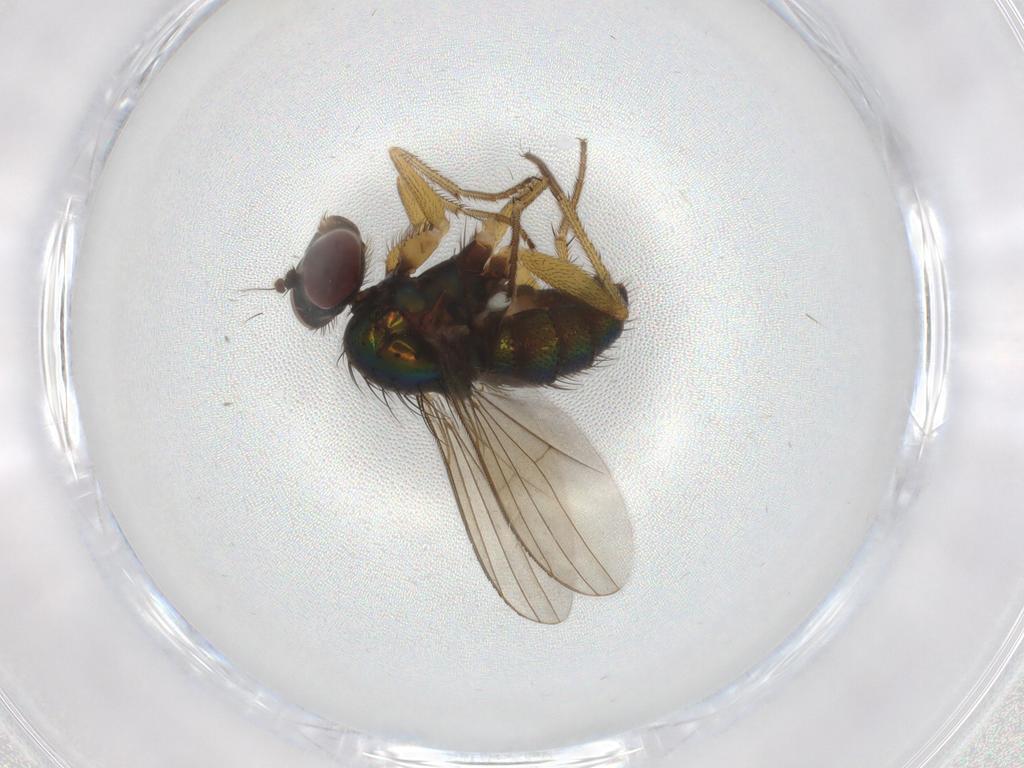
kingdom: Animalia
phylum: Arthropoda
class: Insecta
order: Diptera
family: Dolichopodidae
